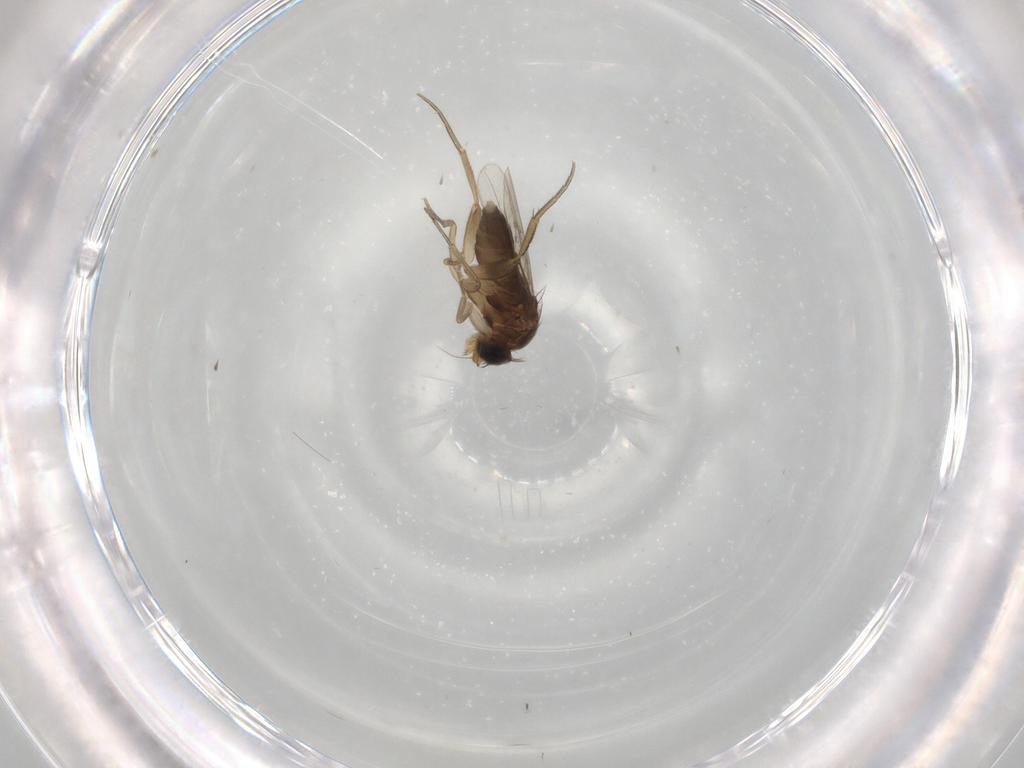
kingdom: Animalia
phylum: Arthropoda
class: Insecta
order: Diptera
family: Phoridae
